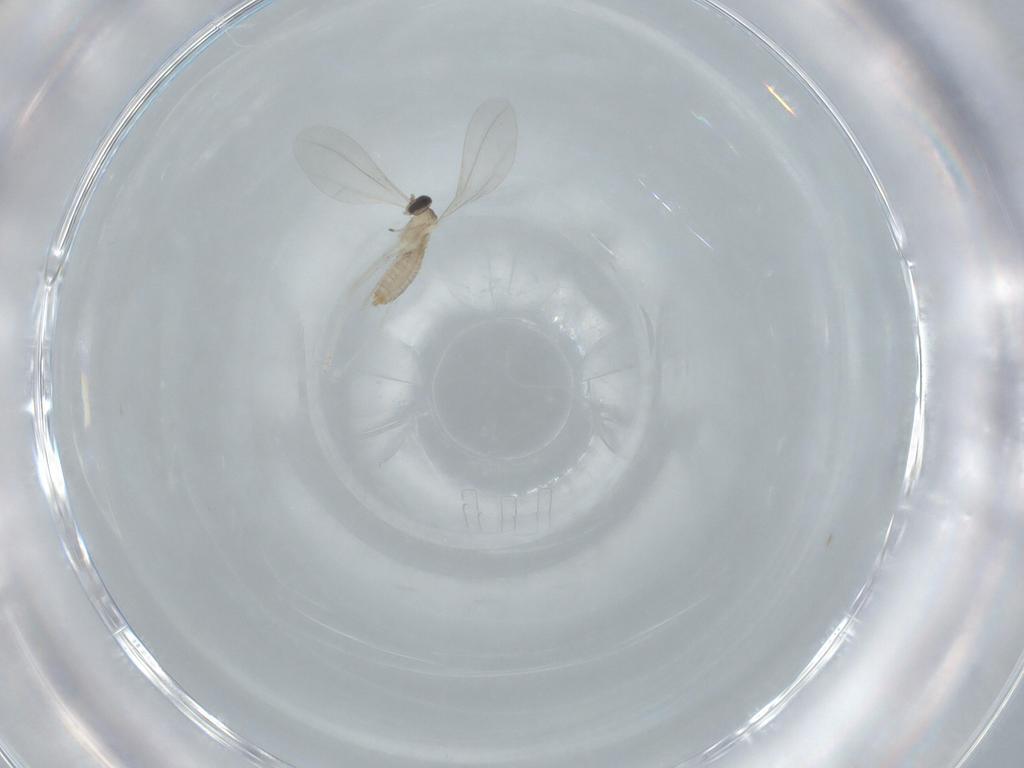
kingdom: Animalia
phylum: Arthropoda
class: Insecta
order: Diptera
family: Cecidomyiidae
